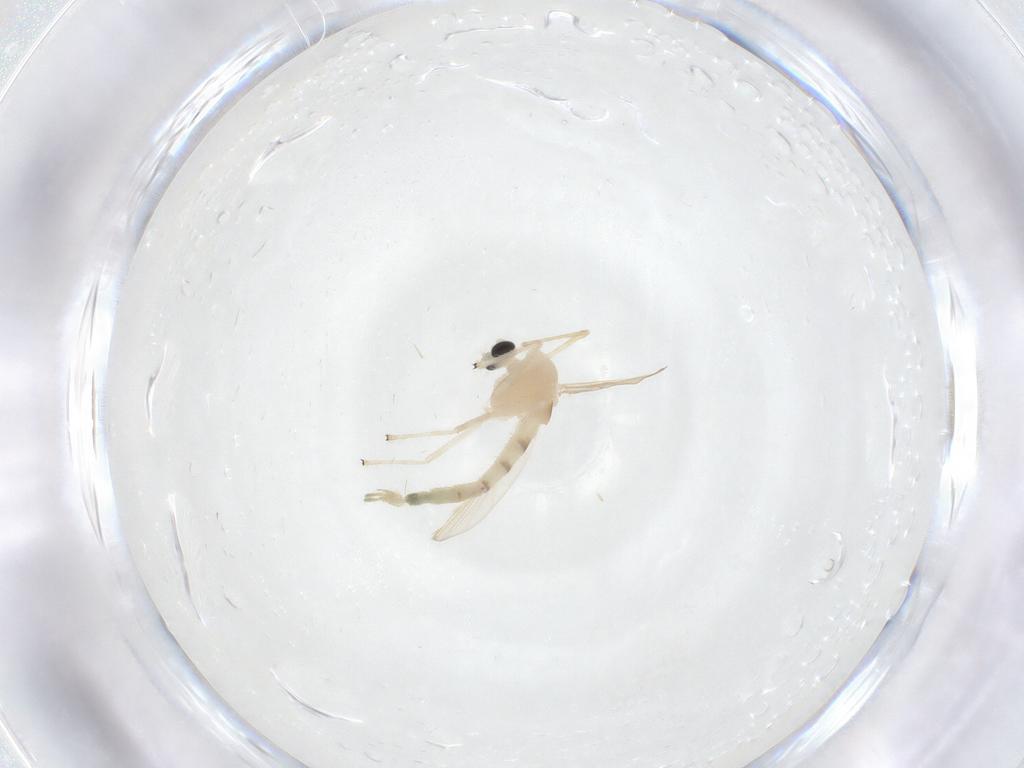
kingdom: Animalia
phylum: Arthropoda
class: Insecta
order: Diptera
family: Chironomidae
